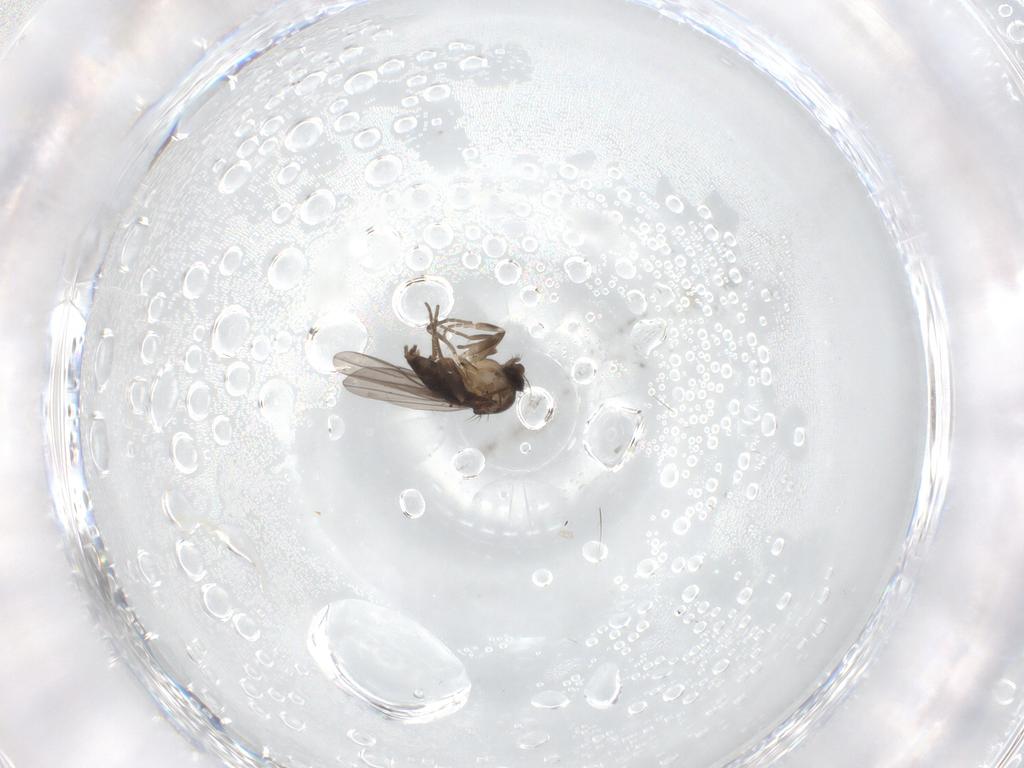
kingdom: Animalia
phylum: Arthropoda
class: Insecta
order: Diptera
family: Phoridae
